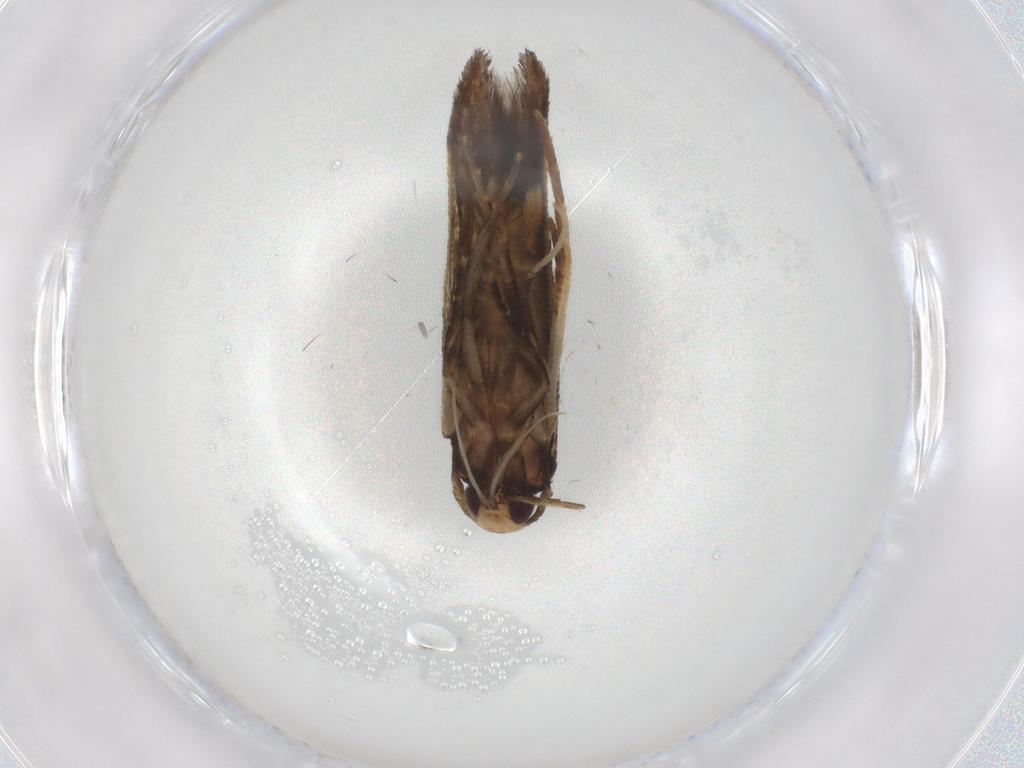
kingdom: Animalia
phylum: Arthropoda
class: Insecta
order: Lepidoptera
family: Cosmopterigidae
